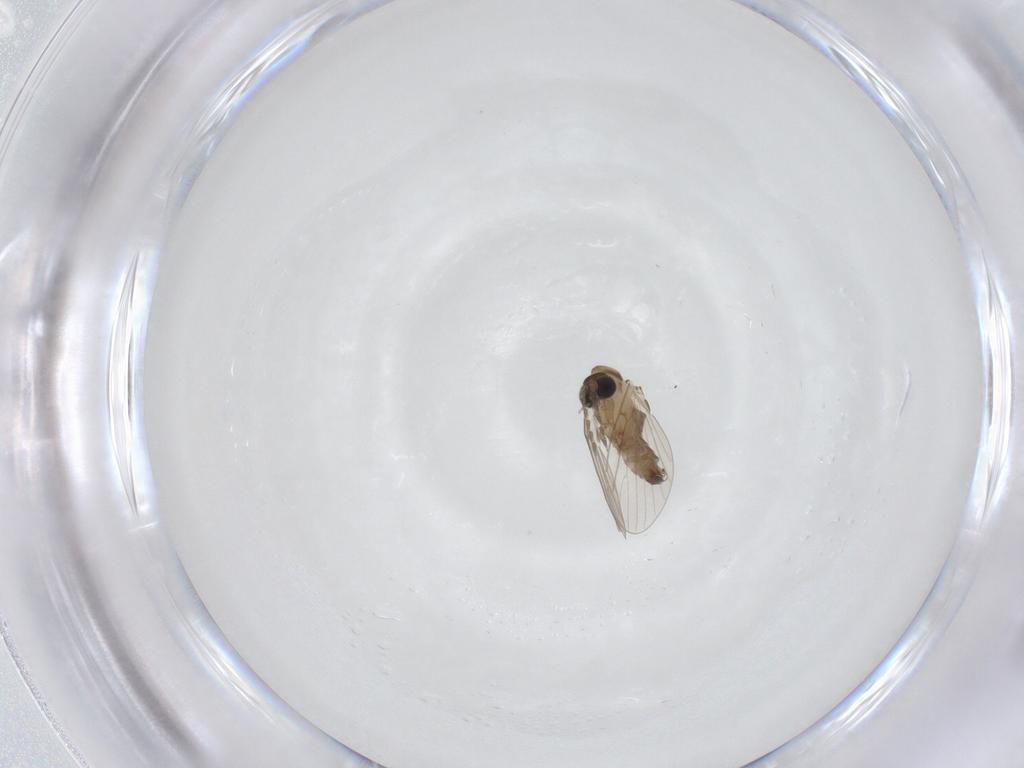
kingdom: Animalia
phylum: Arthropoda
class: Insecta
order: Diptera
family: Psychodidae
